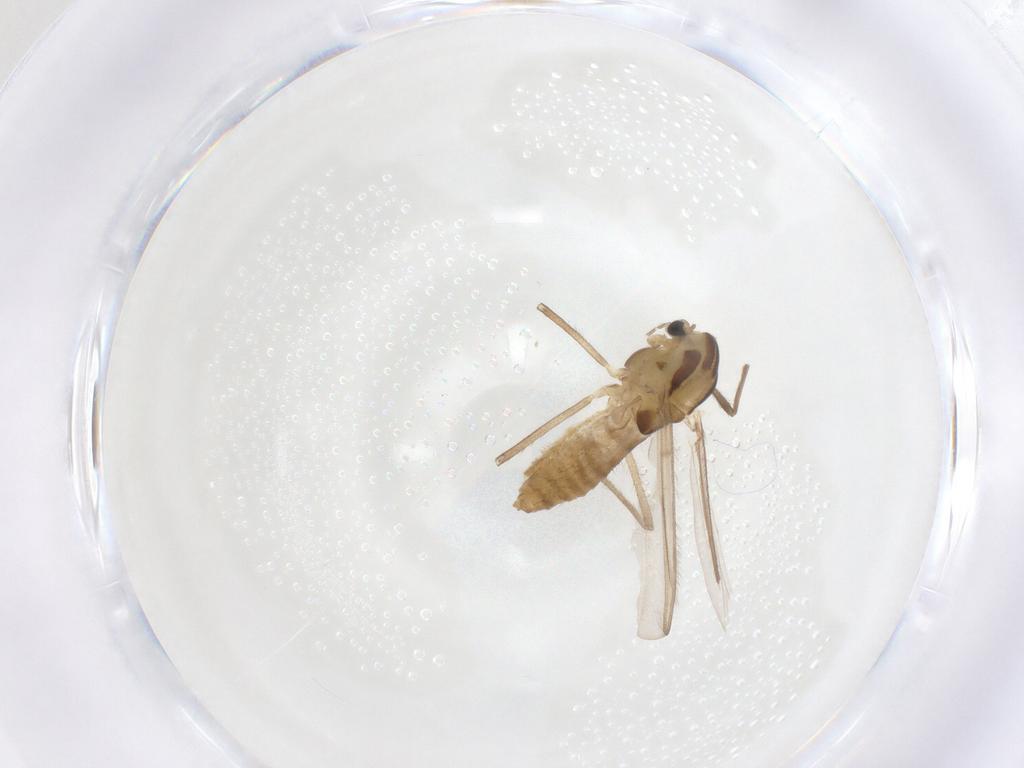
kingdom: Animalia
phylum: Arthropoda
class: Insecta
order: Diptera
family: Chironomidae
